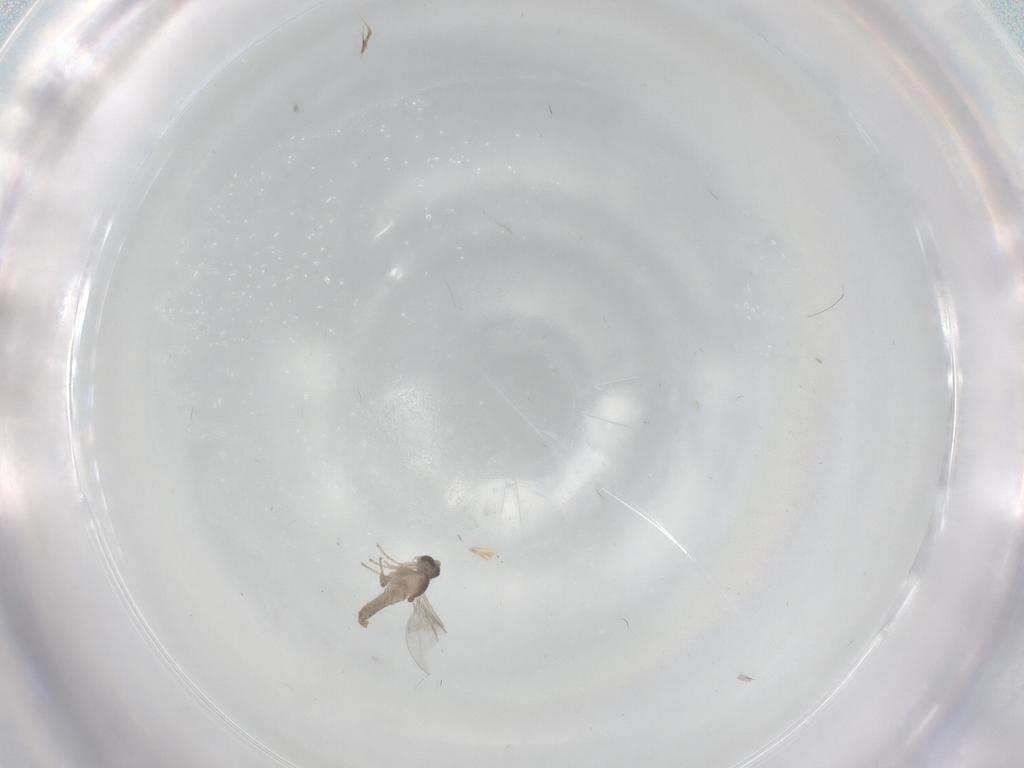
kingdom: Animalia
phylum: Arthropoda
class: Insecta
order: Diptera
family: Cecidomyiidae
